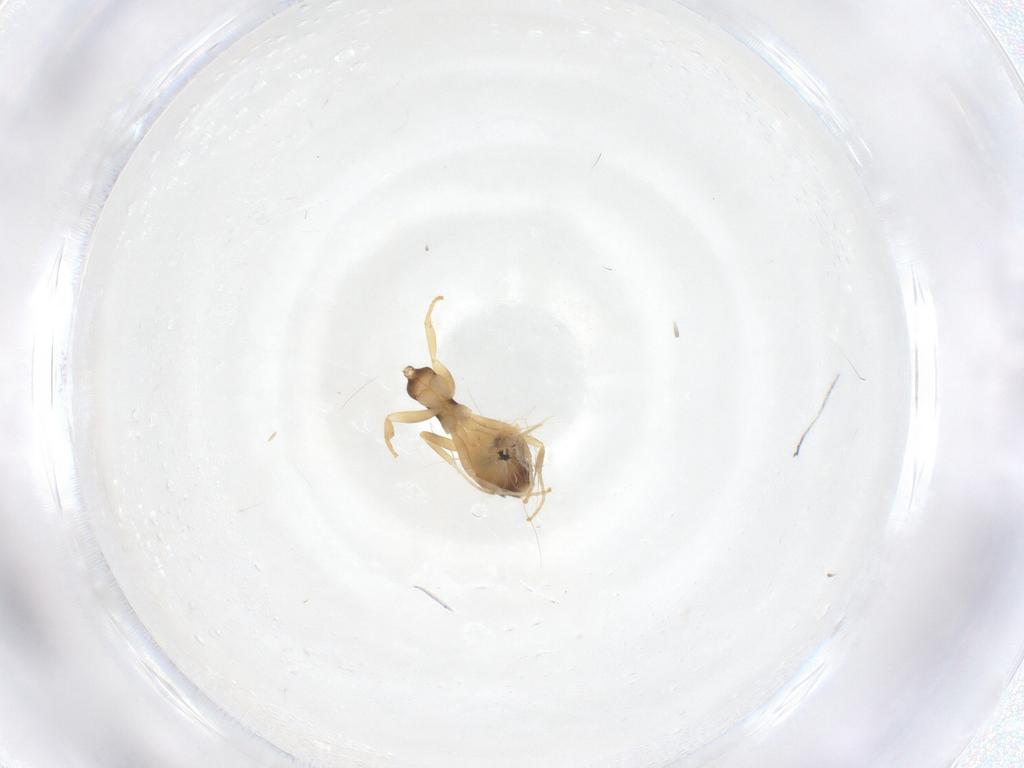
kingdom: Animalia
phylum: Arthropoda
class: Insecta
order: Hymenoptera
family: Formicidae
